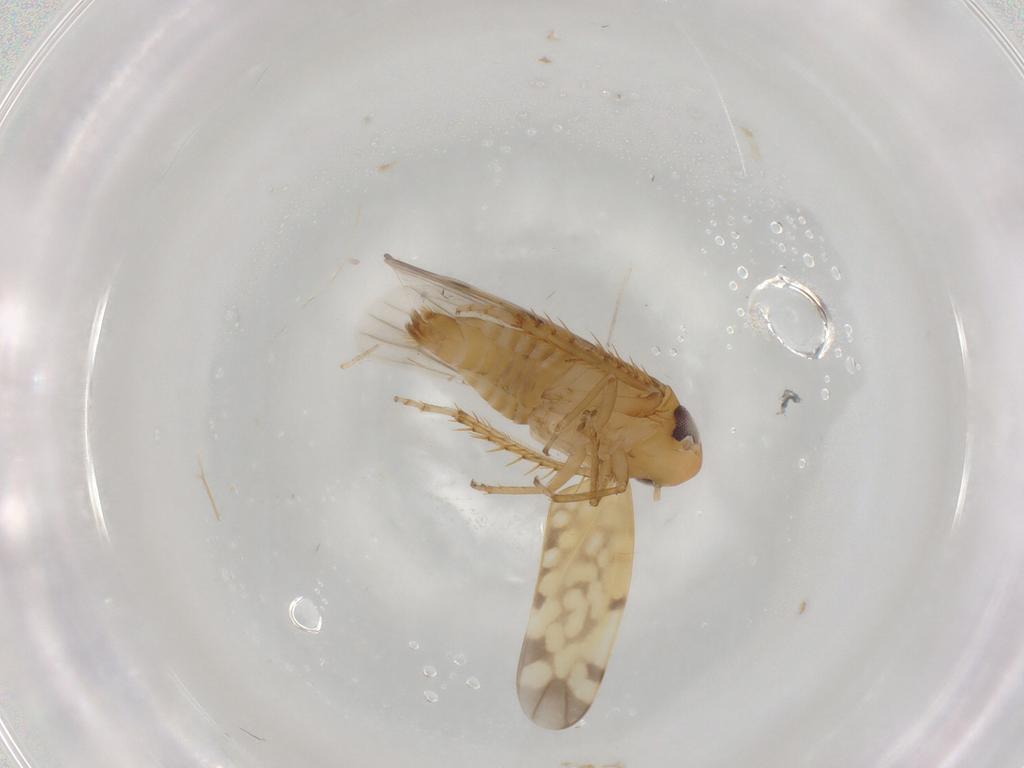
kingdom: Animalia
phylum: Arthropoda
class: Insecta
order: Hemiptera
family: Cicadellidae
